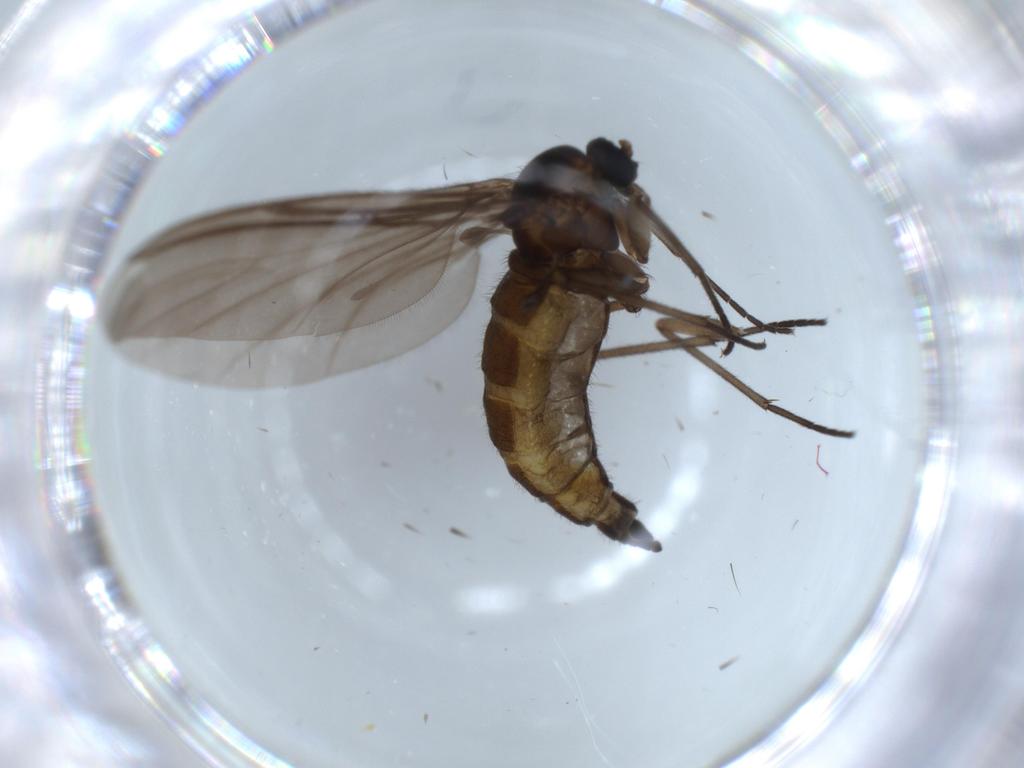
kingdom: Animalia
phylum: Arthropoda
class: Insecta
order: Diptera
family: Sciaridae
